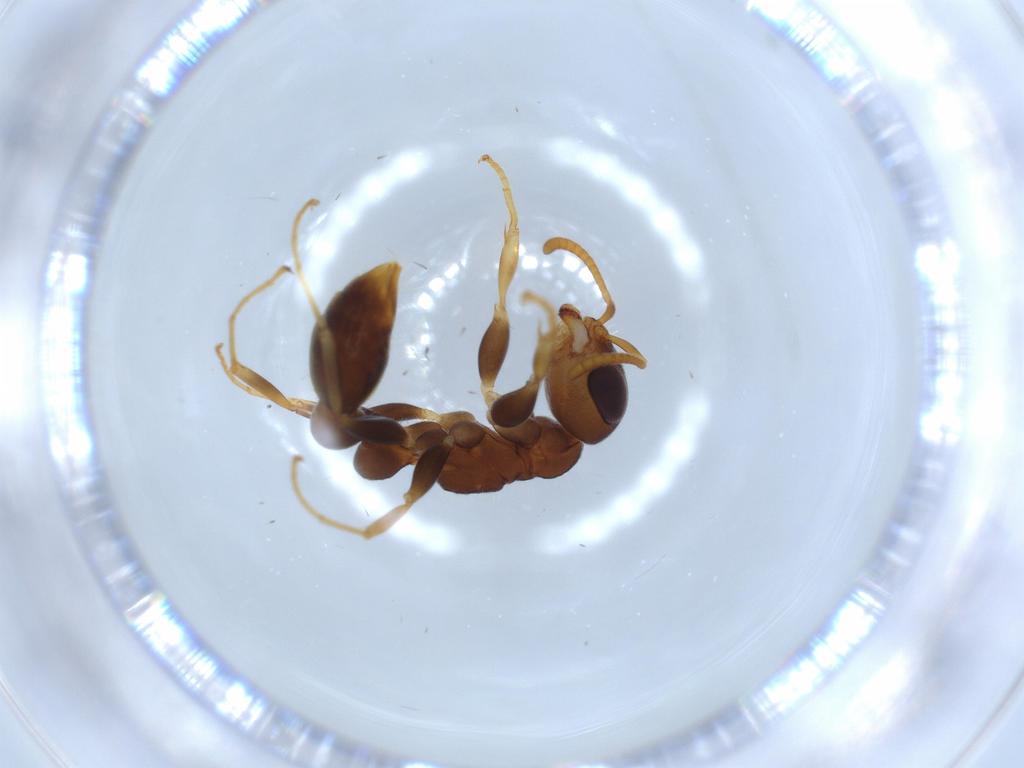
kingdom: Animalia
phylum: Arthropoda
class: Insecta
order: Hymenoptera
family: Formicidae
